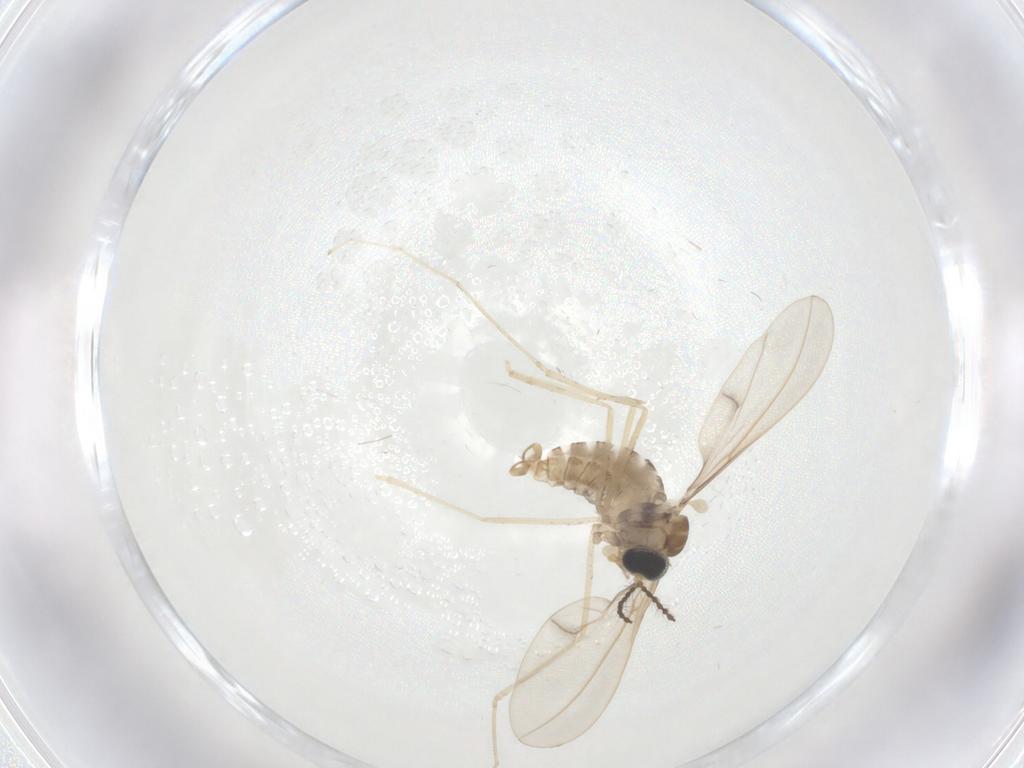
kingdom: Animalia
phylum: Arthropoda
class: Insecta
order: Diptera
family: Cecidomyiidae
